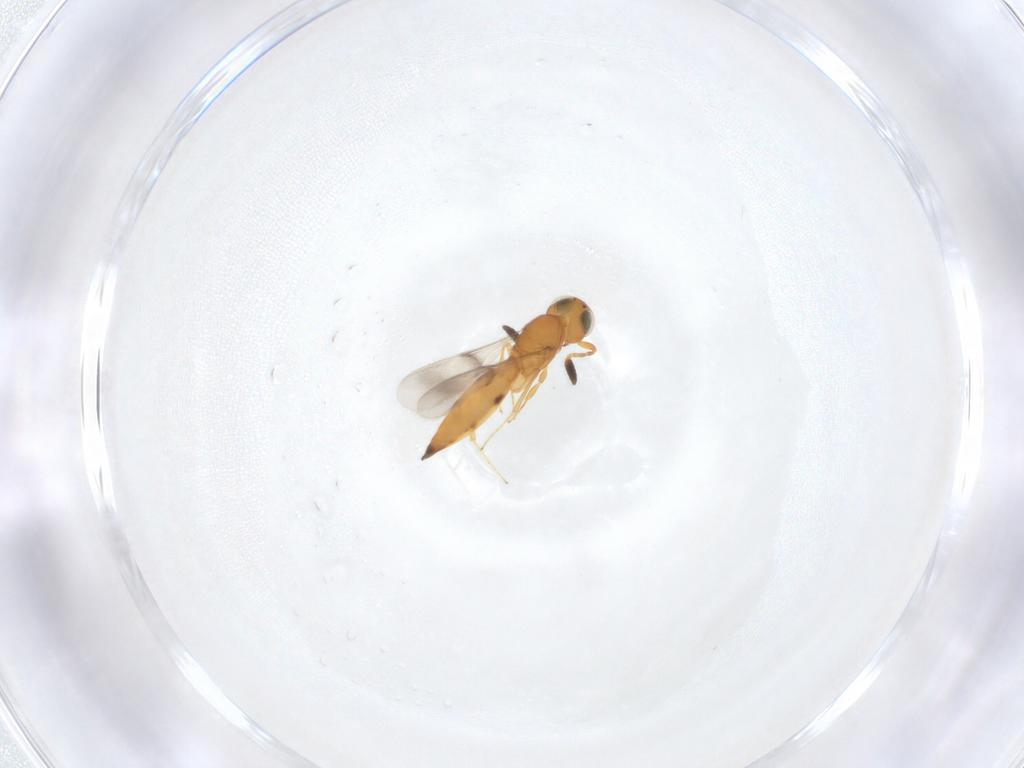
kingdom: Animalia
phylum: Arthropoda
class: Insecta
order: Hymenoptera
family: Scelionidae
